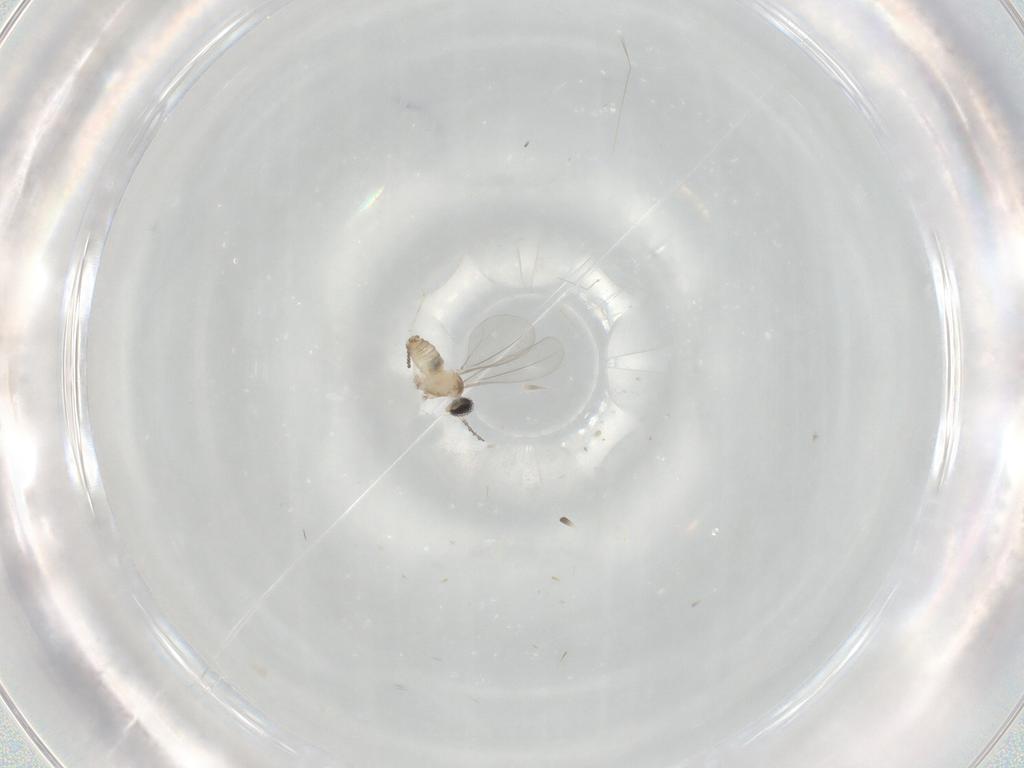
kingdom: Animalia
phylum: Arthropoda
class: Insecta
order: Diptera
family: Cecidomyiidae
